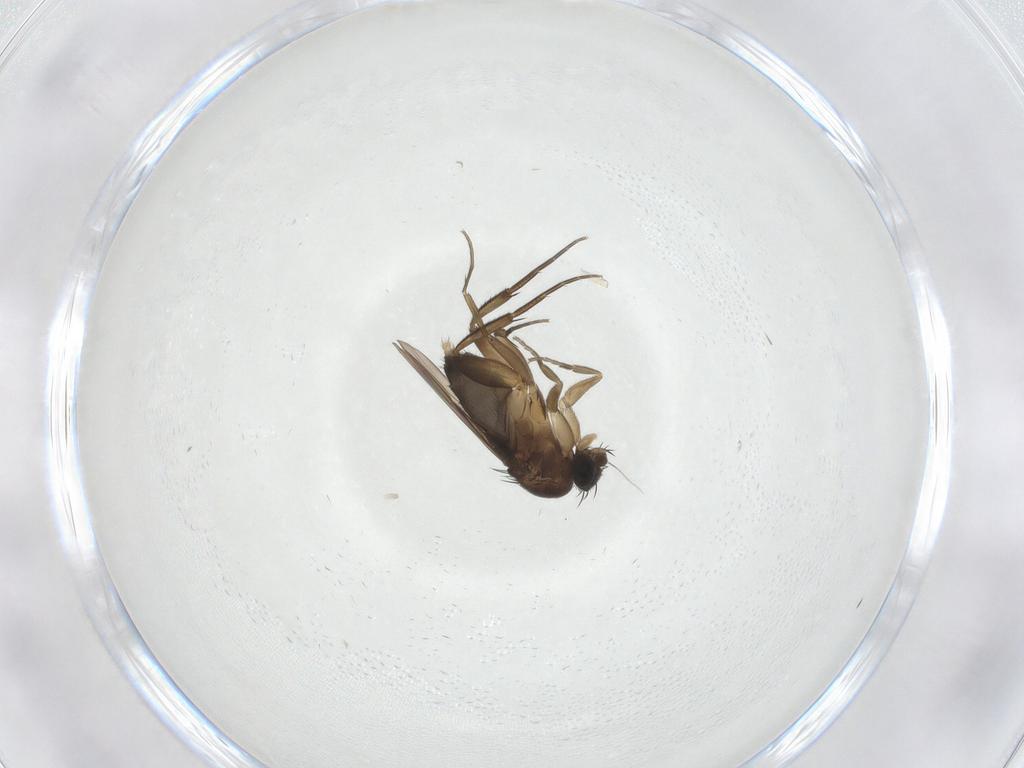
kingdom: Animalia
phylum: Arthropoda
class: Insecta
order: Diptera
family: Phoridae
